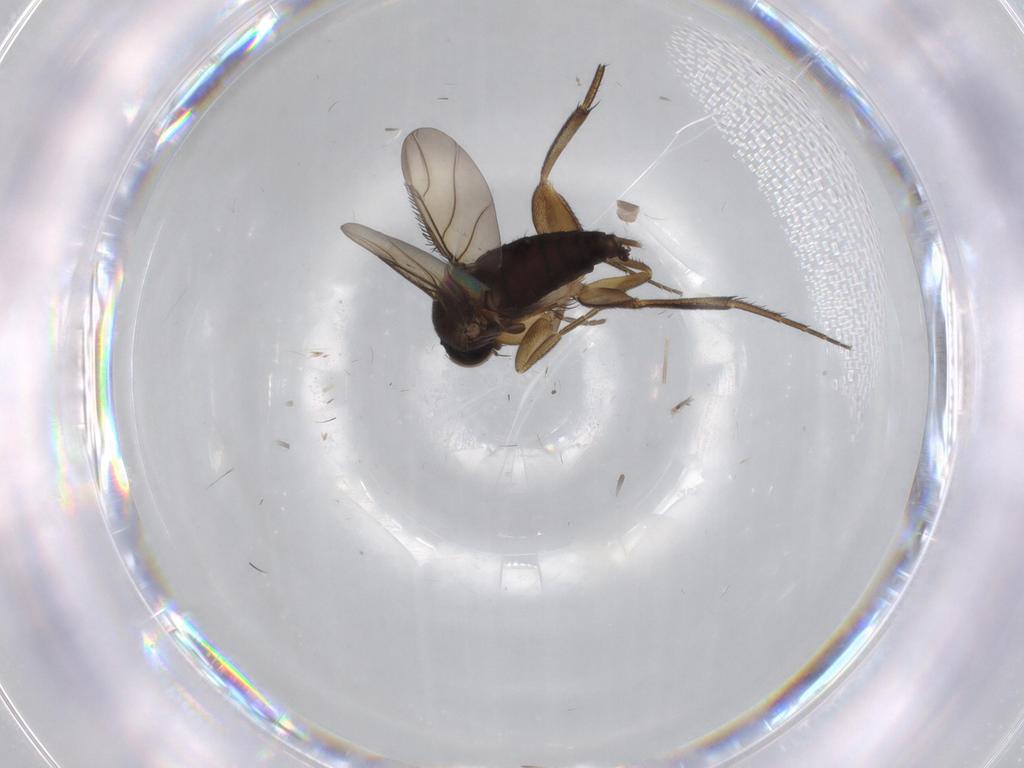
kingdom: Animalia
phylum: Arthropoda
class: Insecta
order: Diptera
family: Phoridae
